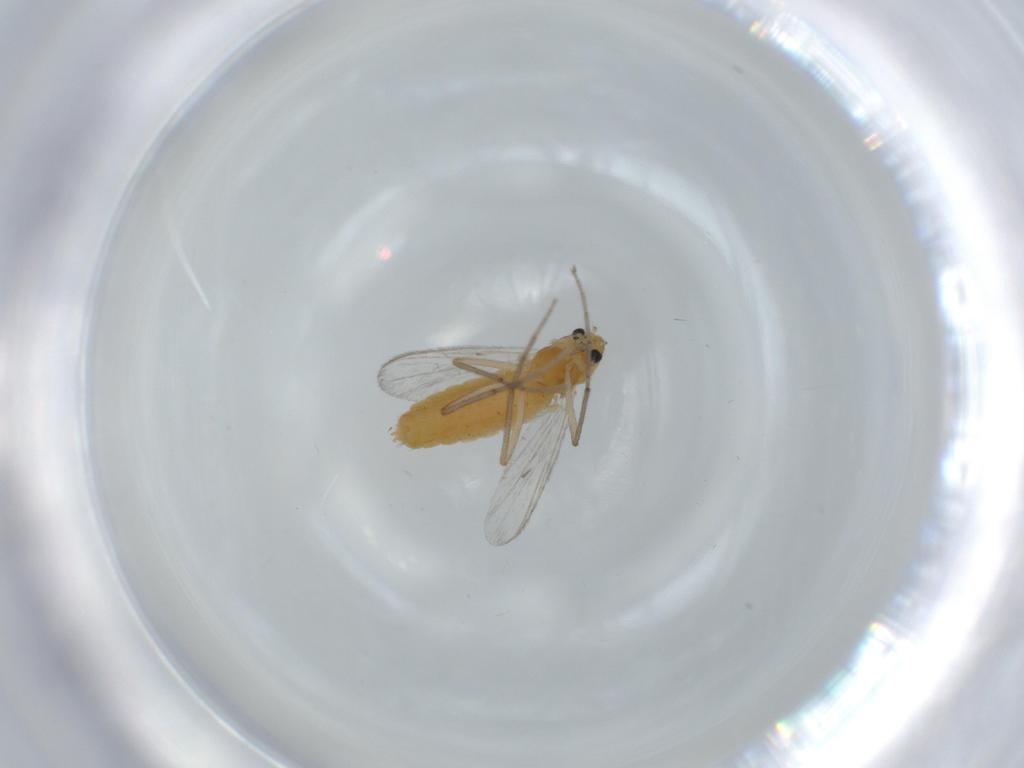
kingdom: Animalia
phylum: Arthropoda
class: Insecta
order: Diptera
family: Chironomidae
